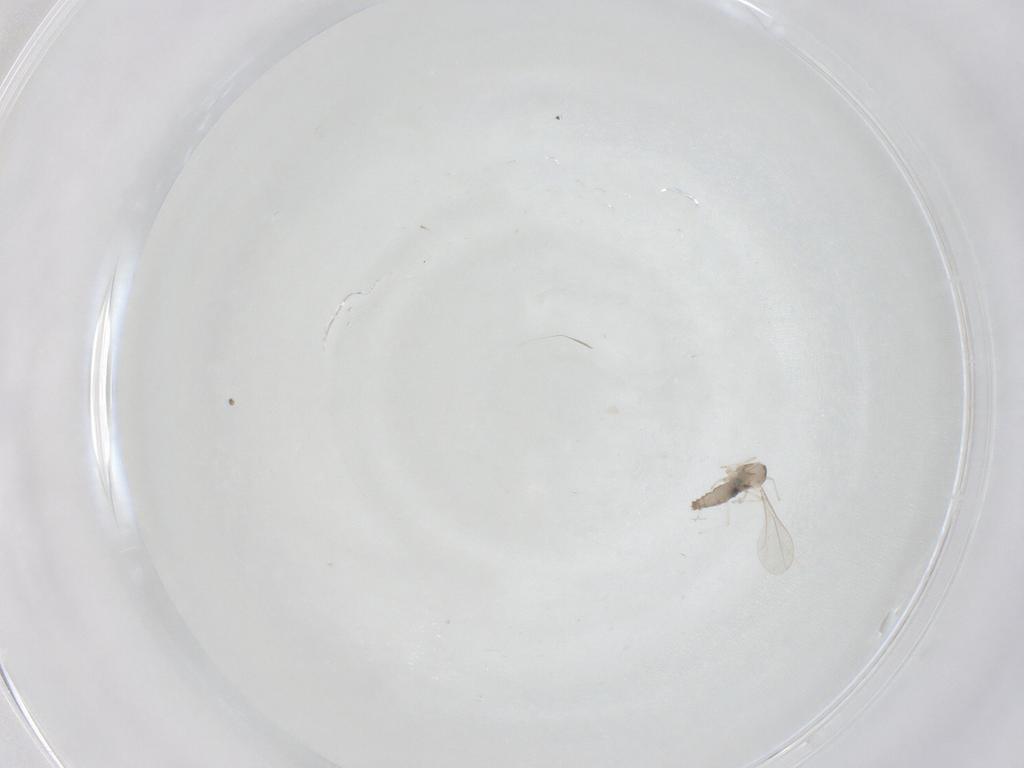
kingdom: Animalia
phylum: Arthropoda
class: Insecta
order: Diptera
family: Cecidomyiidae
